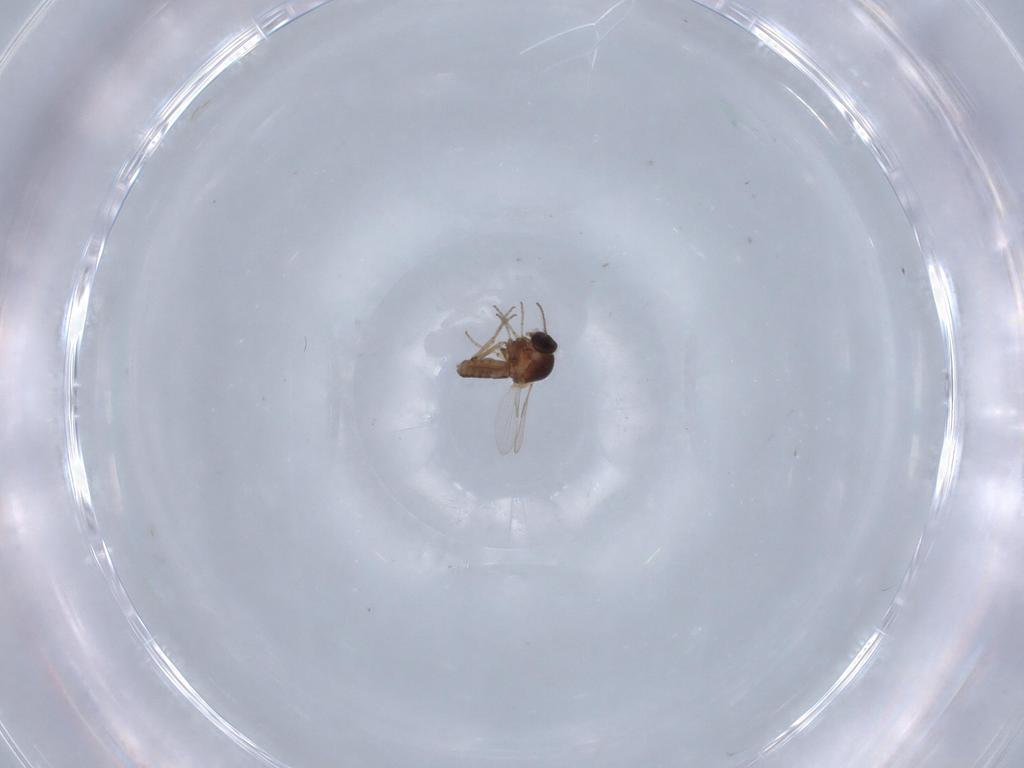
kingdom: Animalia
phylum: Arthropoda
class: Insecta
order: Diptera
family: Ceratopogonidae
